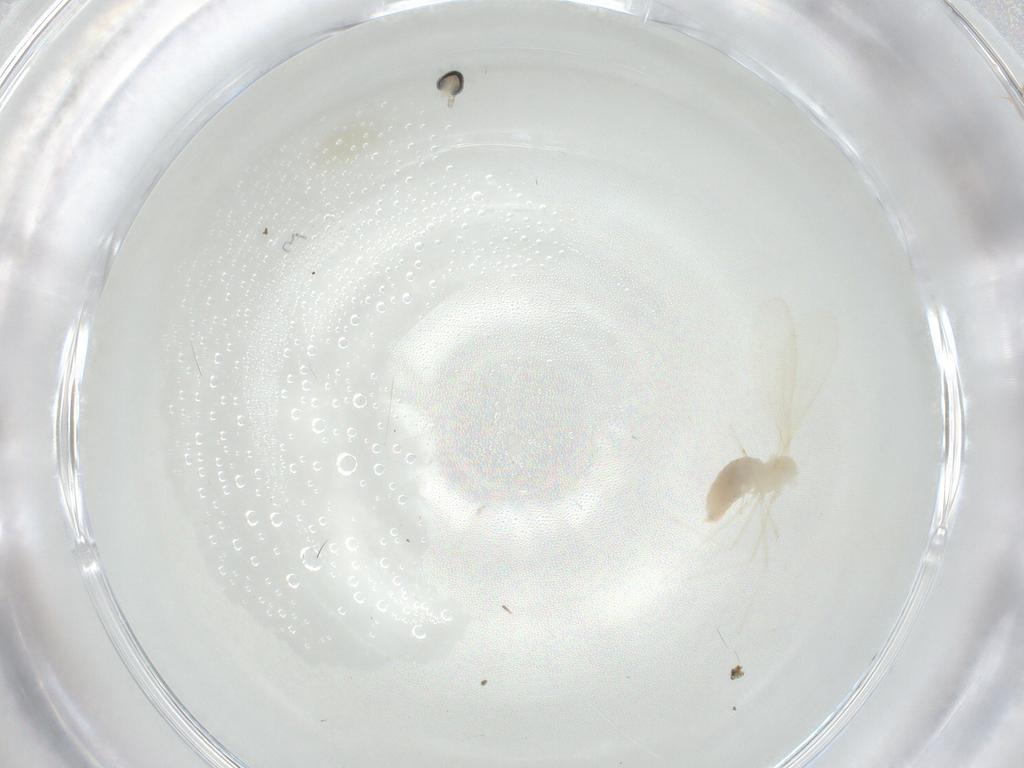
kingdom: Animalia
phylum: Arthropoda
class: Insecta
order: Diptera
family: Cecidomyiidae
